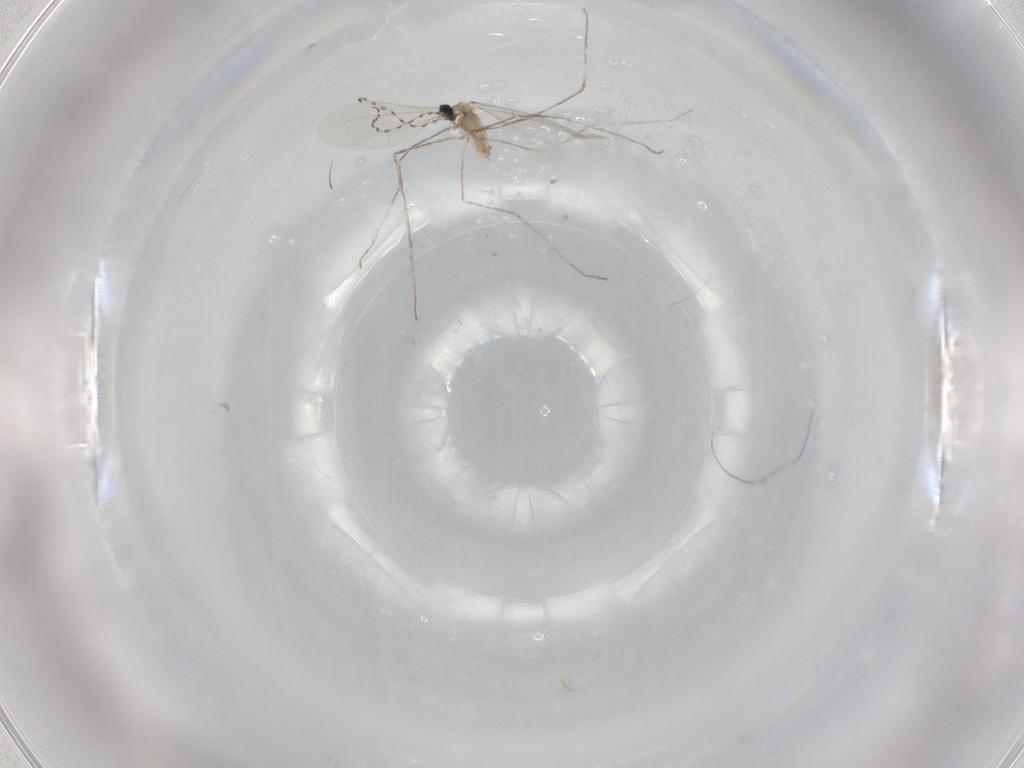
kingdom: Animalia
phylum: Arthropoda
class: Insecta
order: Diptera
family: Cecidomyiidae
